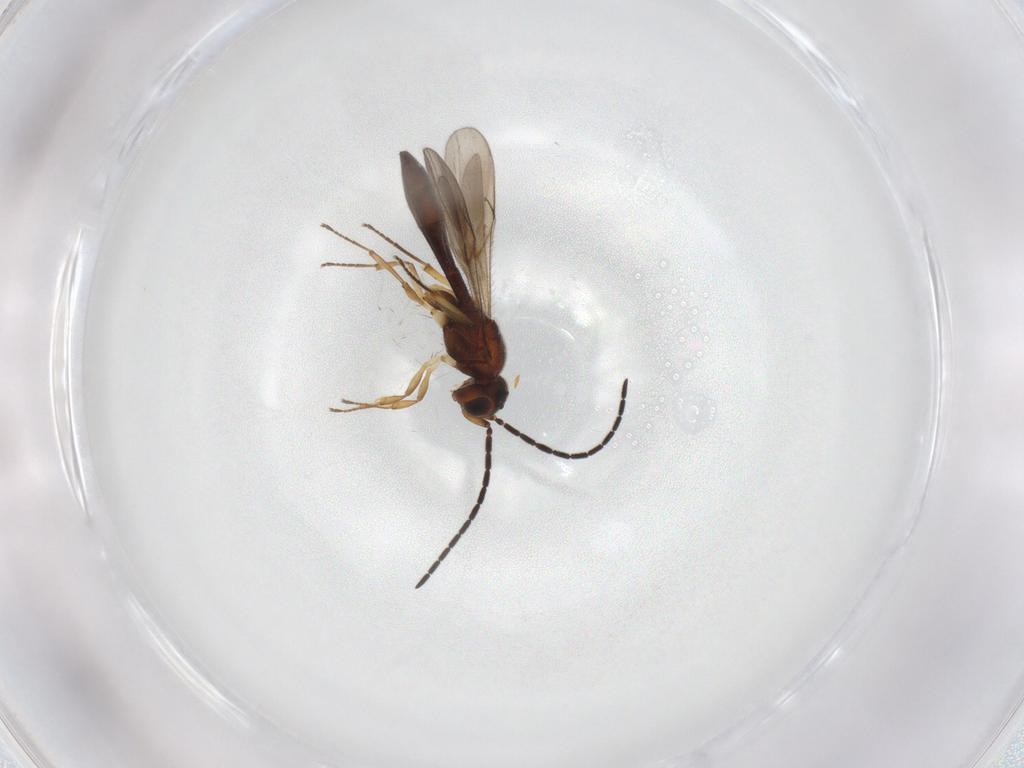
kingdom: Animalia
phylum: Arthropoda
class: Insecta
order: Hymenoptera
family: Scelionidae
